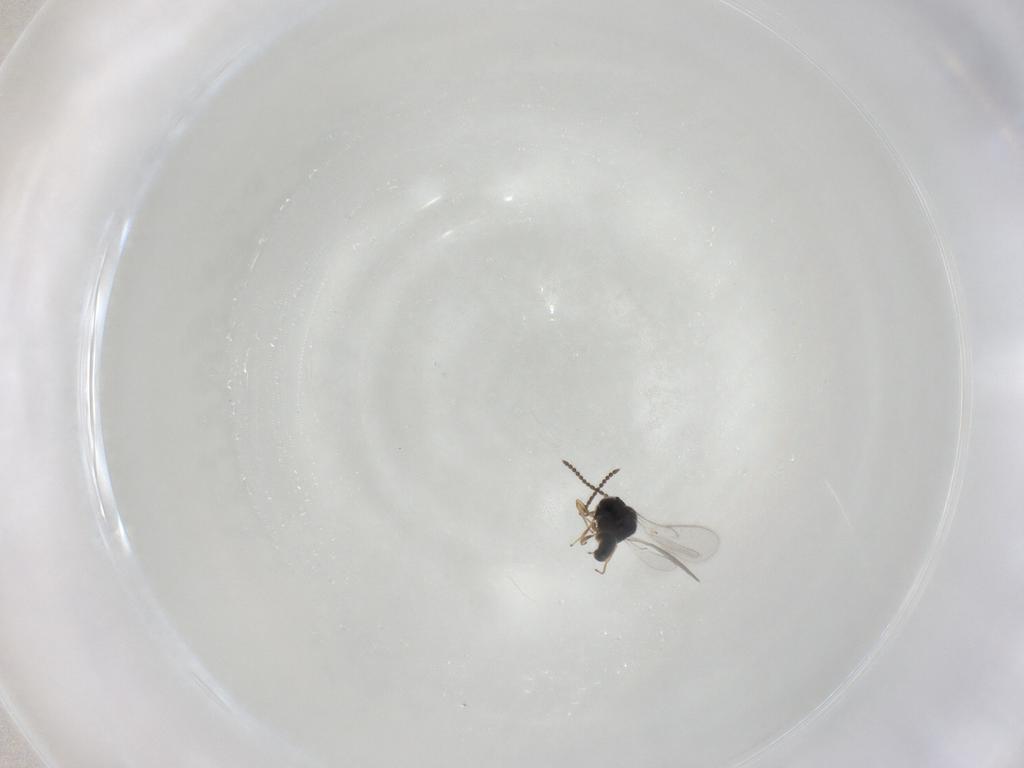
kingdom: Animalia
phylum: Arthropoda
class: Insecta
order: Hymenoptera
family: Scelionidae
